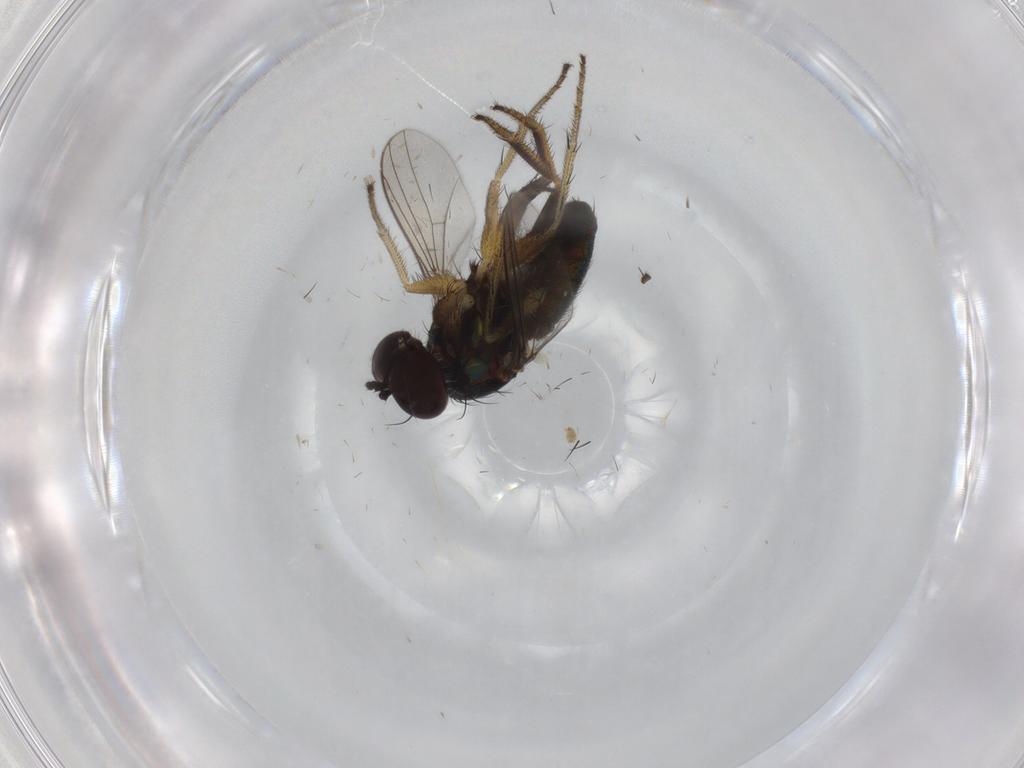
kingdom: Animalia
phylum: Arthropoda
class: Insecta
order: Diptera
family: Dolichopodidae
